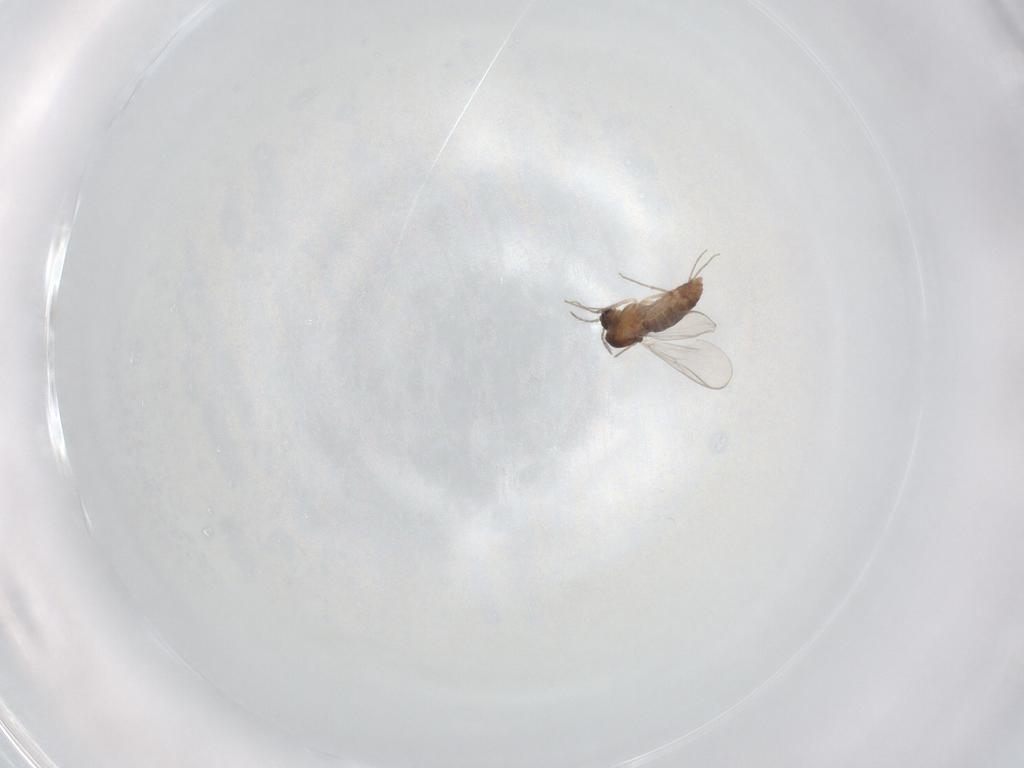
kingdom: Animalia
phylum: Arthropoda
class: Insecta
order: Diptera
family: Chironomidae
